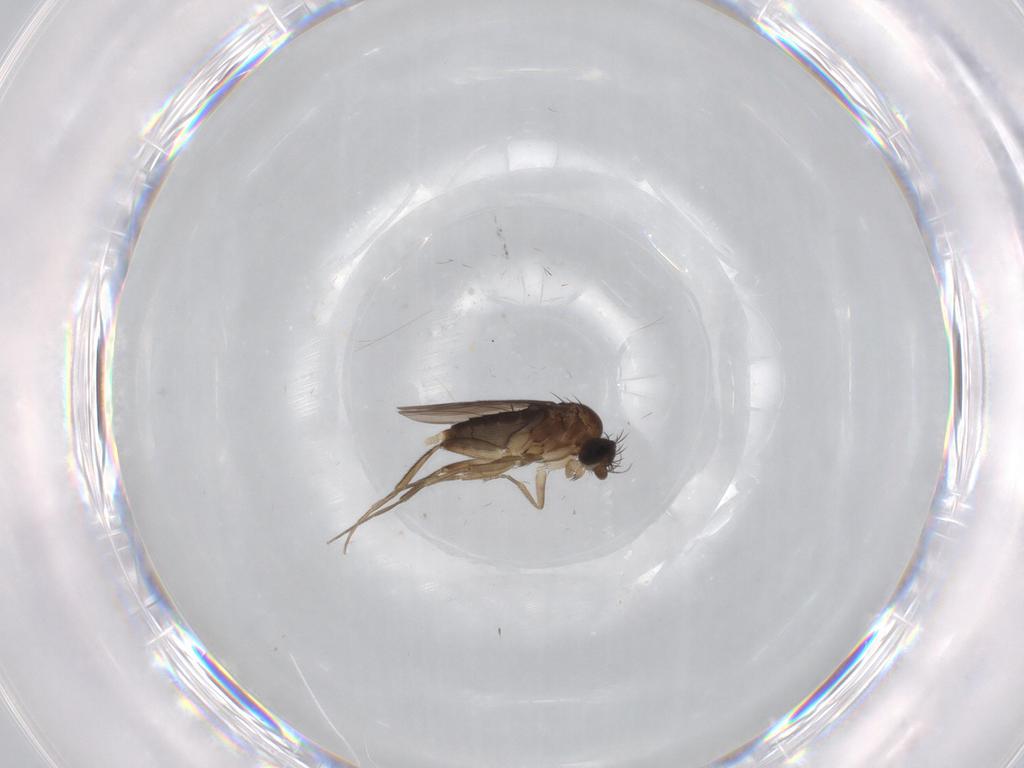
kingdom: Animalia
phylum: Arthropoda
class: Insecta
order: Diptera
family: Phoridae
